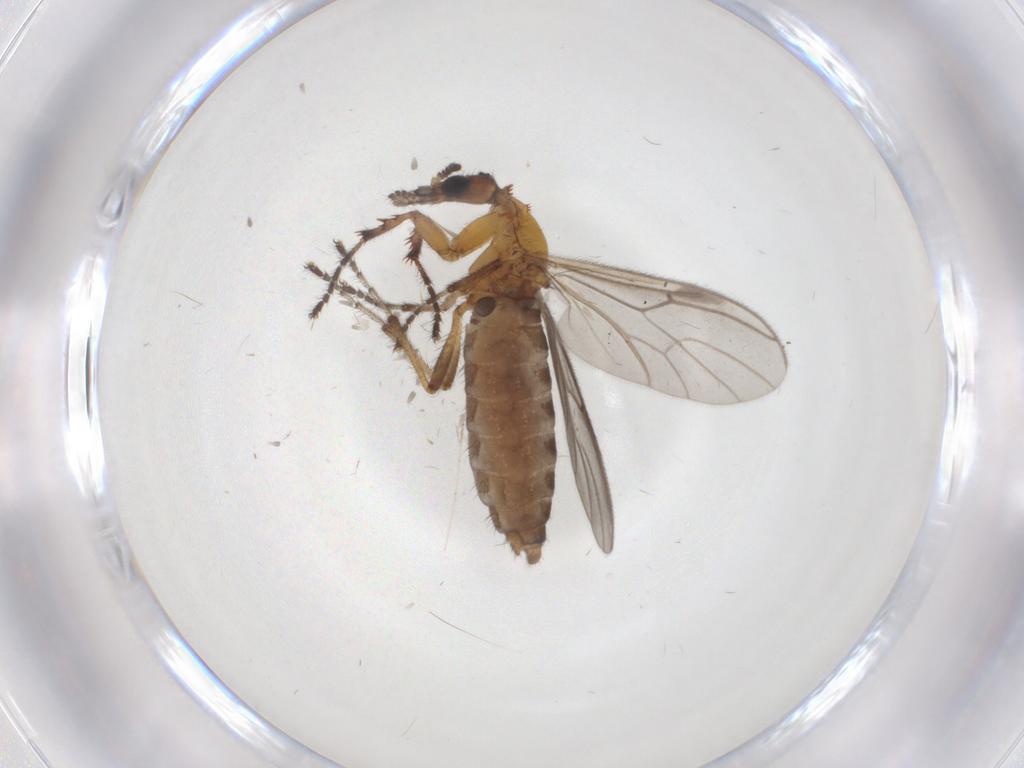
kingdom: Animalia
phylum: Arthropoda
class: Insecta
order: Diptera
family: Bibionidae
